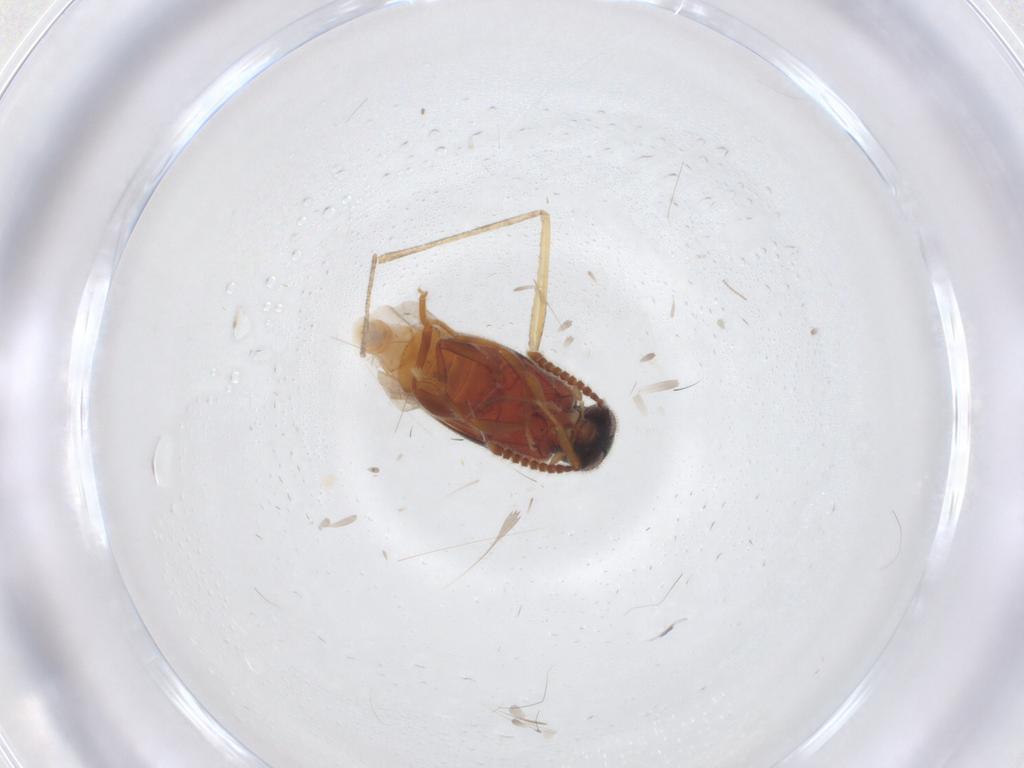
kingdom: Animalia
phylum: Arthropoda
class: Insecta
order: Coleoptera
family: Aderidae
